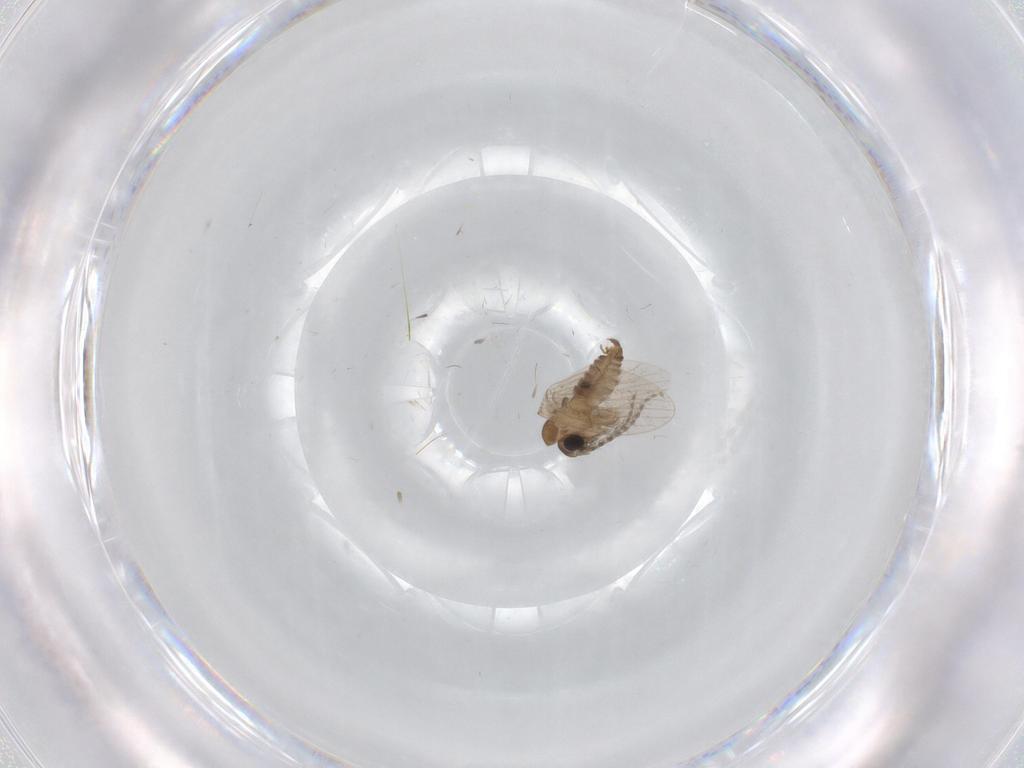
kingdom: Animalia
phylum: Arthropoda
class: Insecta
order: Diptera
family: Psychodidae
